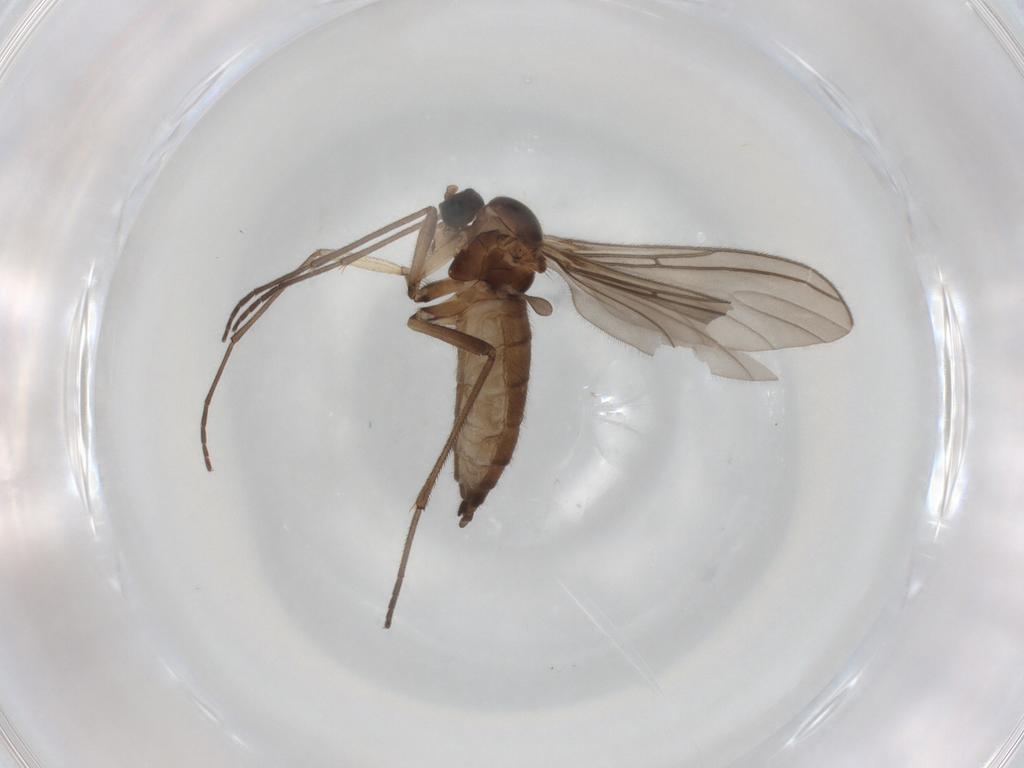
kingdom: Animalia
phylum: Arthropoda
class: Insecta
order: Diptera
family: Sciaridae
